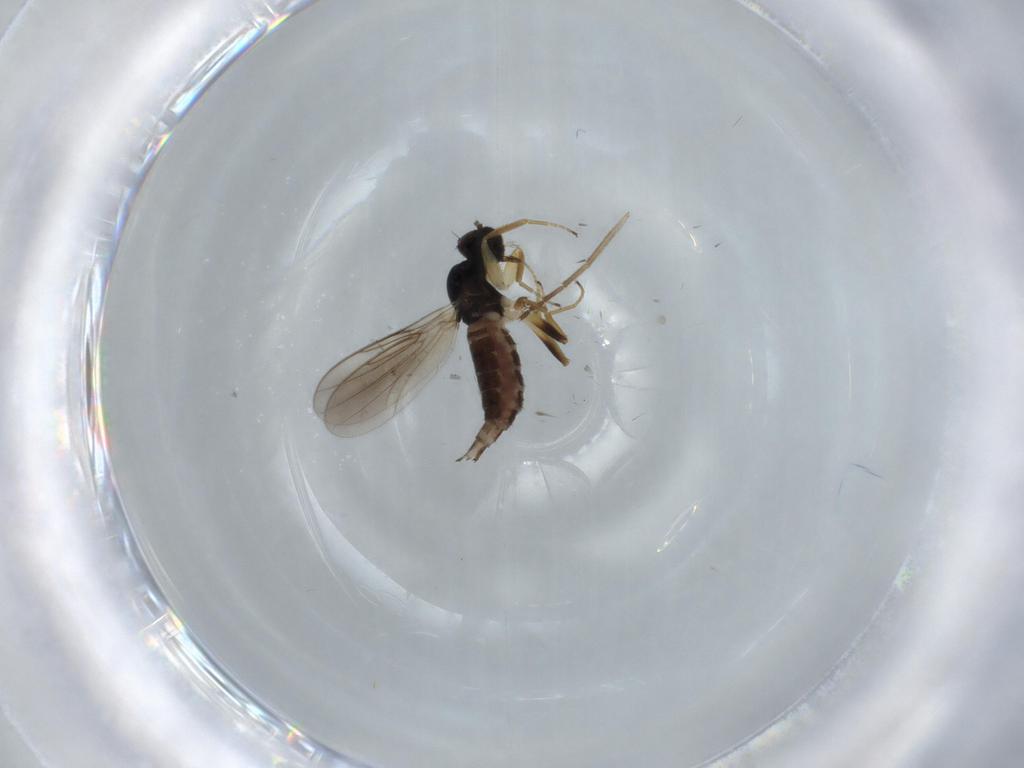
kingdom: Animalia
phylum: Arthropoda
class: Insecta
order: Diptera
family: Hybotidae
